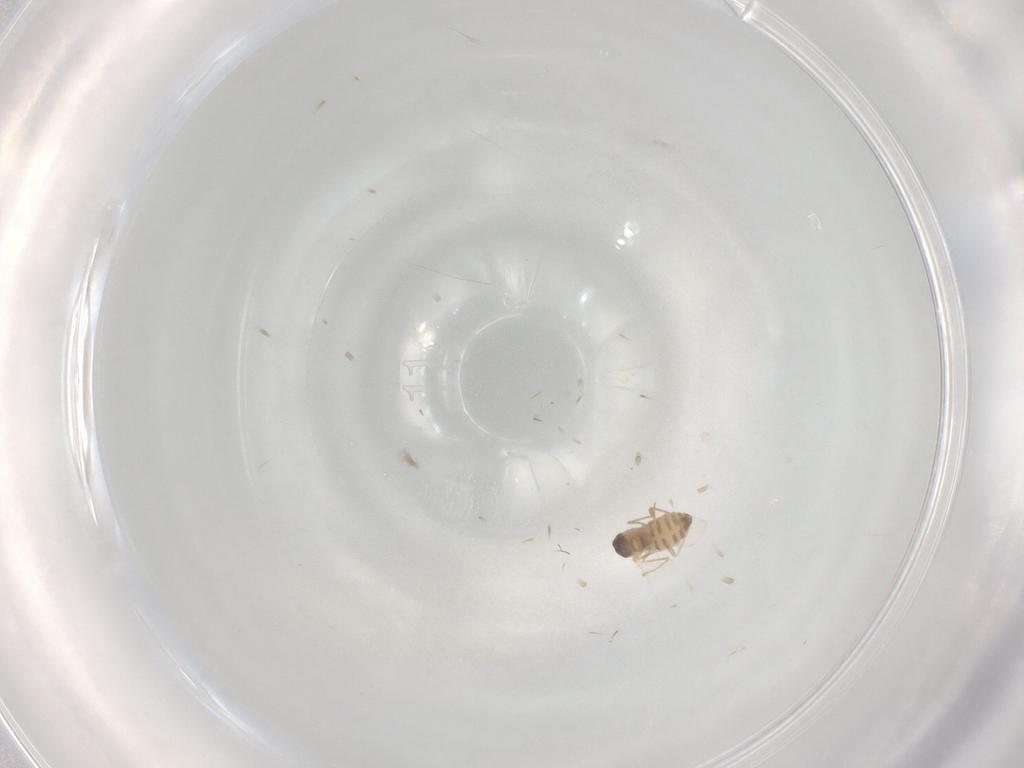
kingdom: Animalia
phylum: Arthropoda
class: Insecta
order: Diptera
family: Cecidomyiidae
